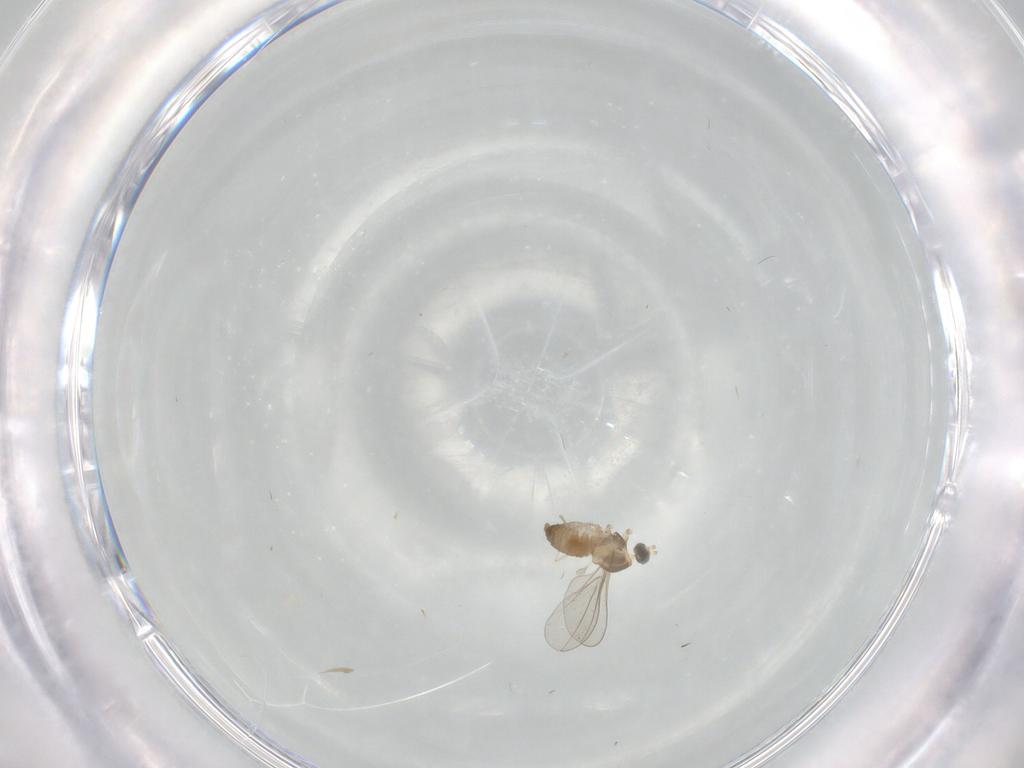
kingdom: Animalia
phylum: Arthropoda
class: Insecta
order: Diptera
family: Cecidomyiidae
